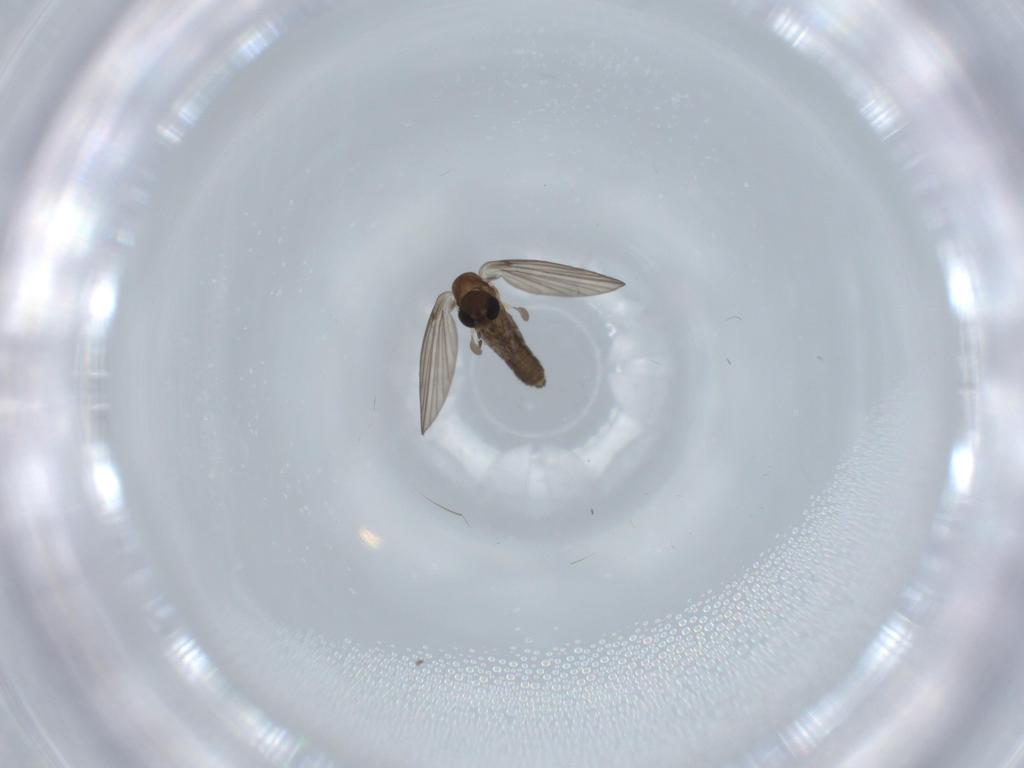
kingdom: Animalia
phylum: Arthropoda
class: Insecta
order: Diptera
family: Psychodidae
